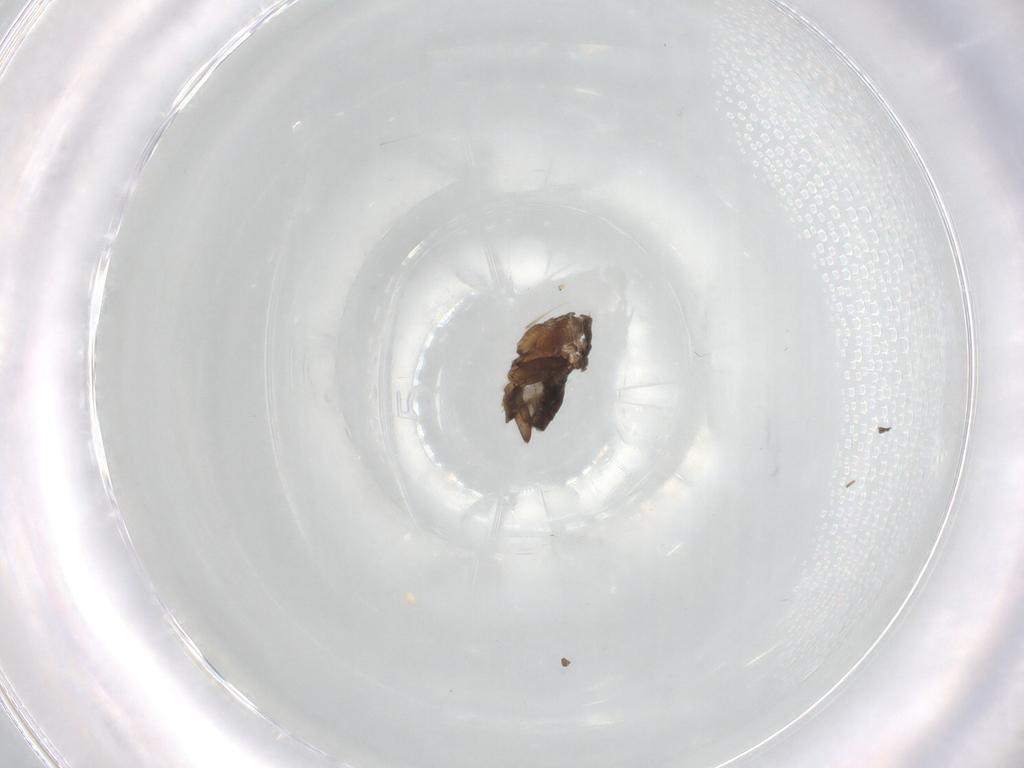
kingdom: Animalia
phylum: Arthropoda
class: Insecta
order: Diptera
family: Cecidomyiidae
